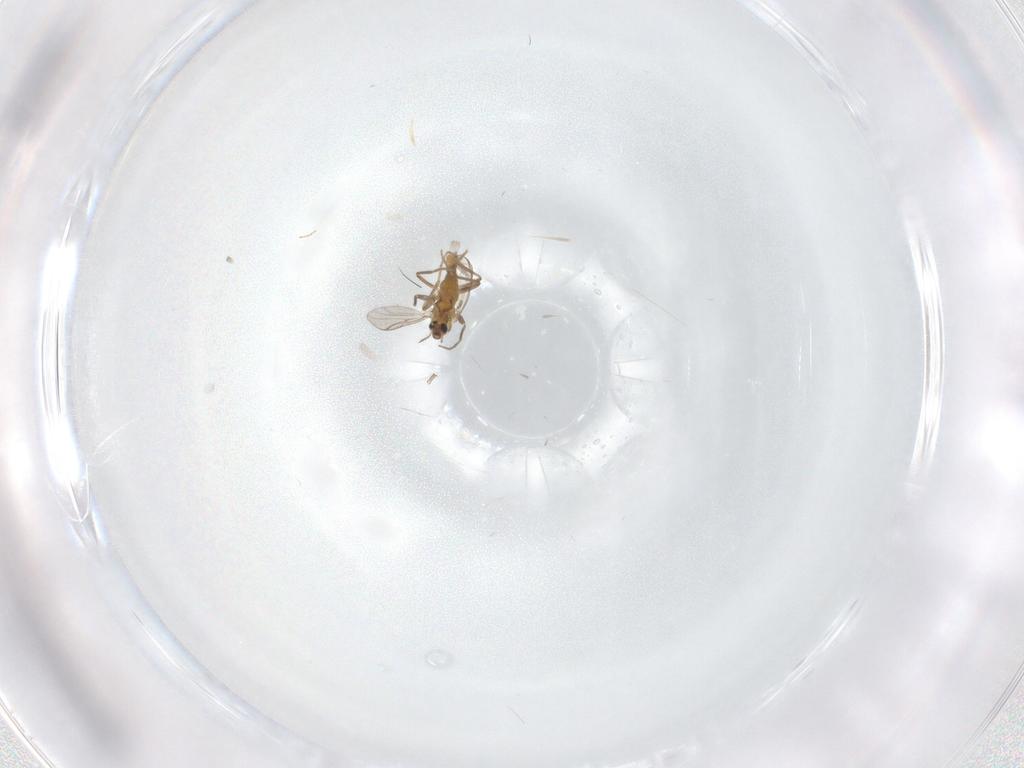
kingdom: Animalia
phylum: Arthropoda
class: Insecta
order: Diptera
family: Chironomidae
